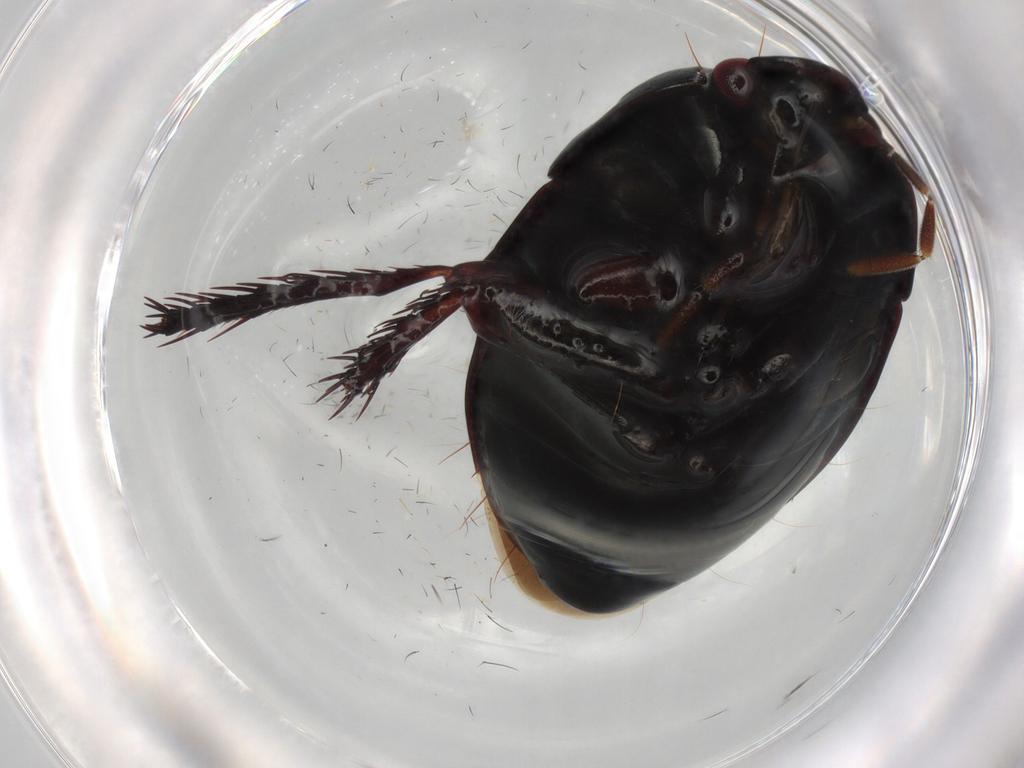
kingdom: Animalia
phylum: Arthropoda
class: Insecta
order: Hemiptera
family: Cydnidae
